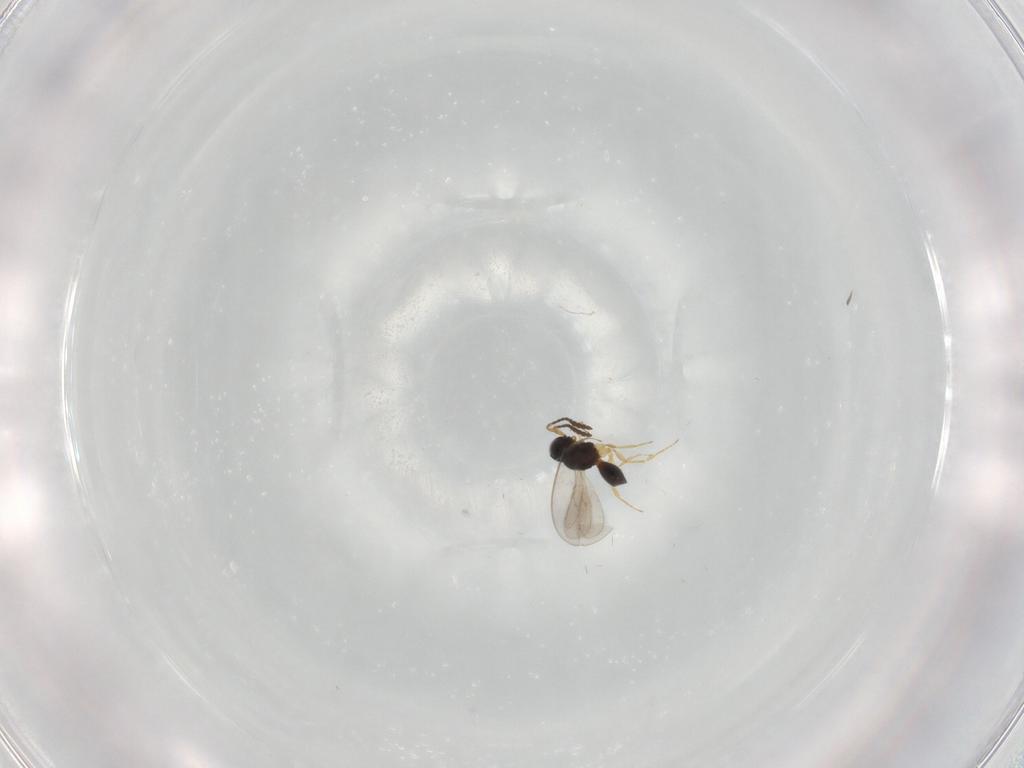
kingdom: Animalia
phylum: Arthropoda
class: Insecta
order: Hymenoptera
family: Scelionidae
